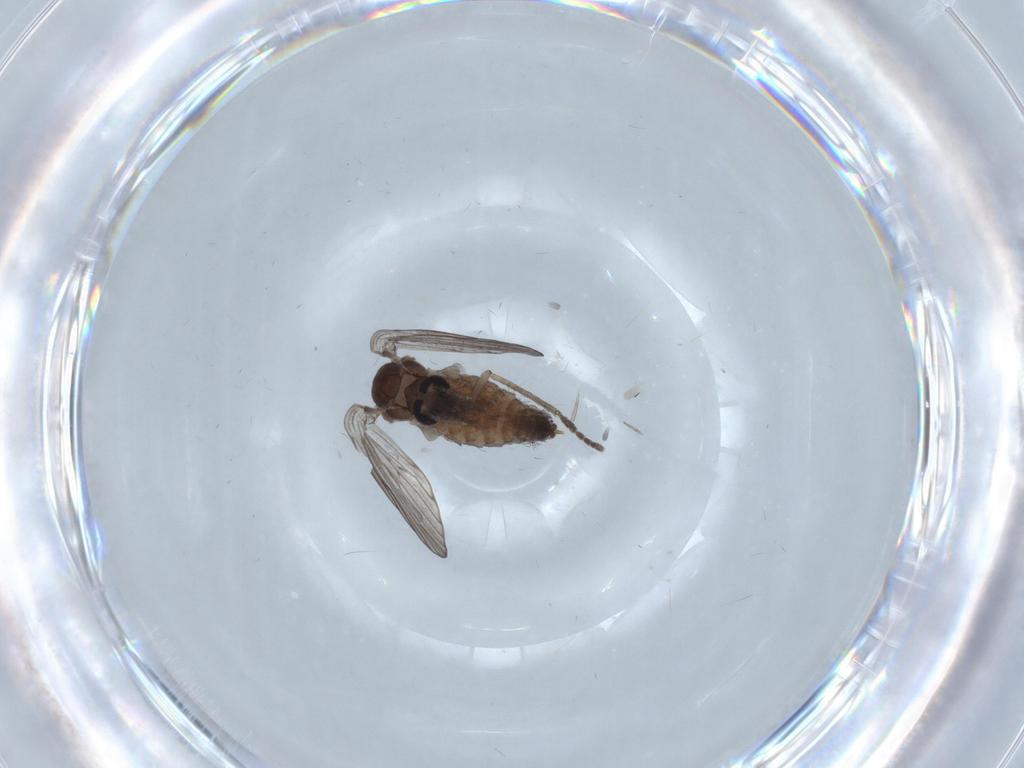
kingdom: Animalia
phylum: Arthropoda
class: Insecta
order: Diptera
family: Psychodidae
